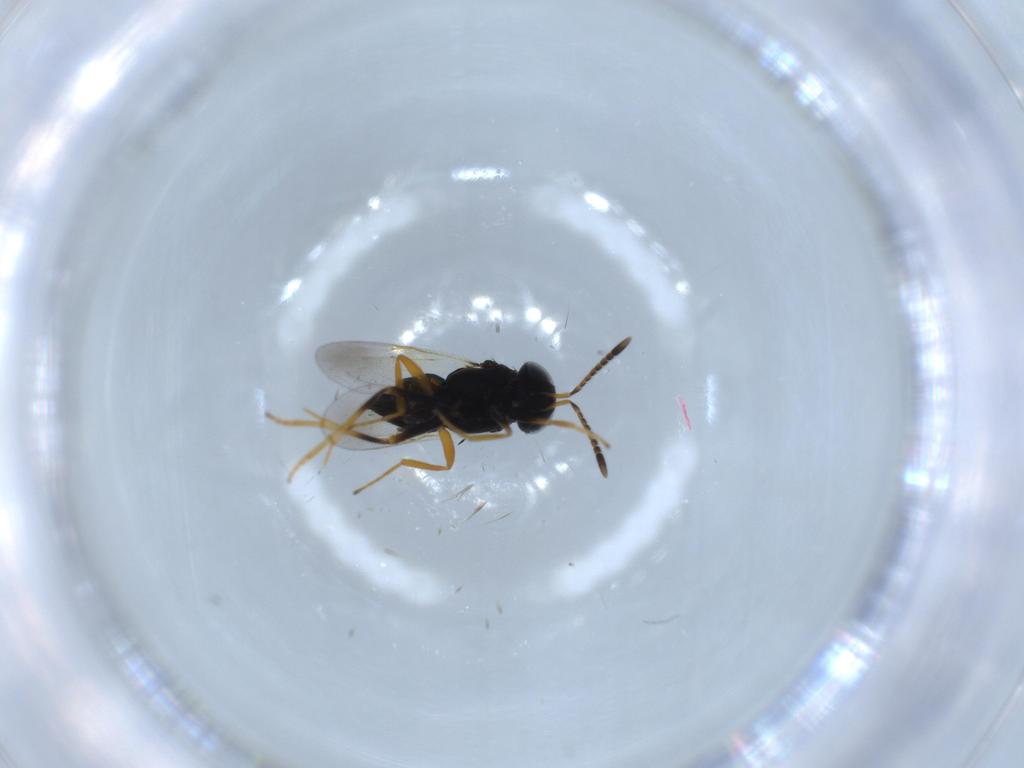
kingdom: Animalia
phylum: Arthropoda
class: Insecta
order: Hymenoptera
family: Encyrtidae
